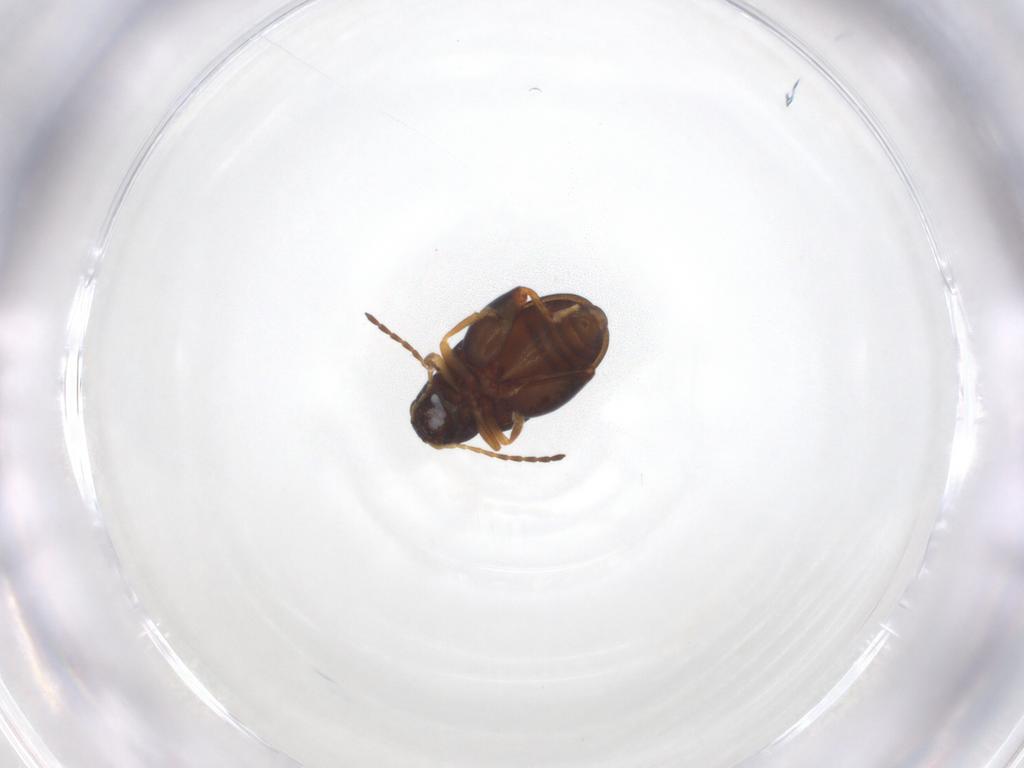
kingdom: Animalia
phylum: Arthropoda
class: Insecta
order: Coleoptera
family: Chrysomelidae
